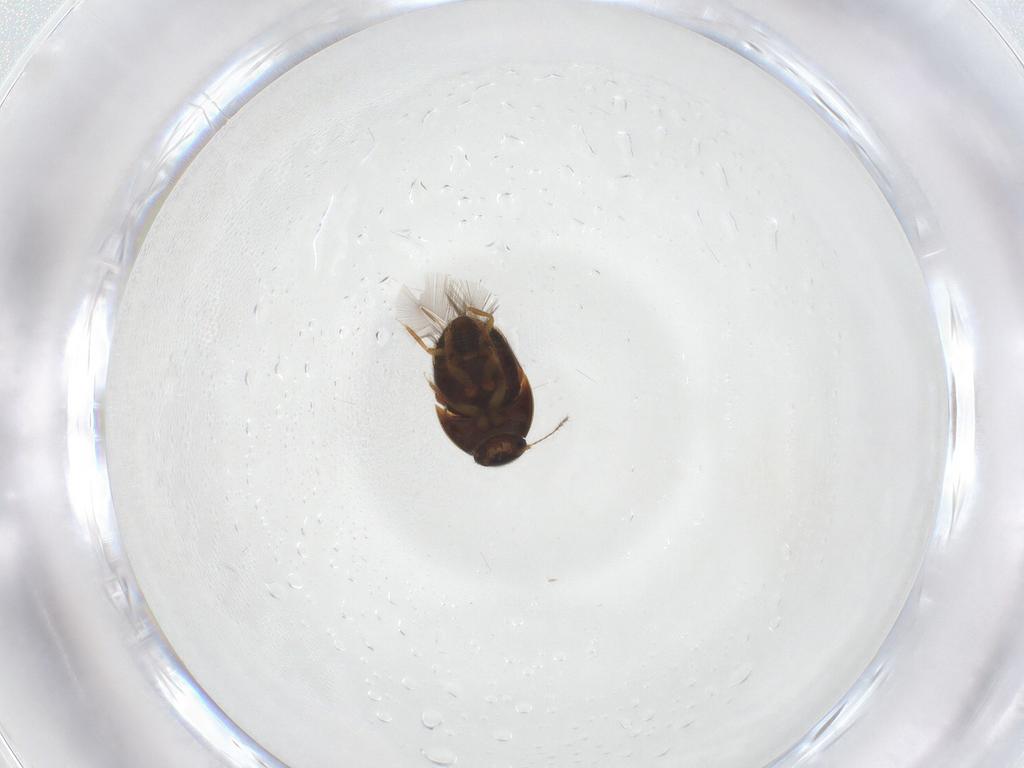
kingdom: Animalia
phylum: Arthropoda
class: Insecta
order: Coleoptera
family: Ptiliidae
